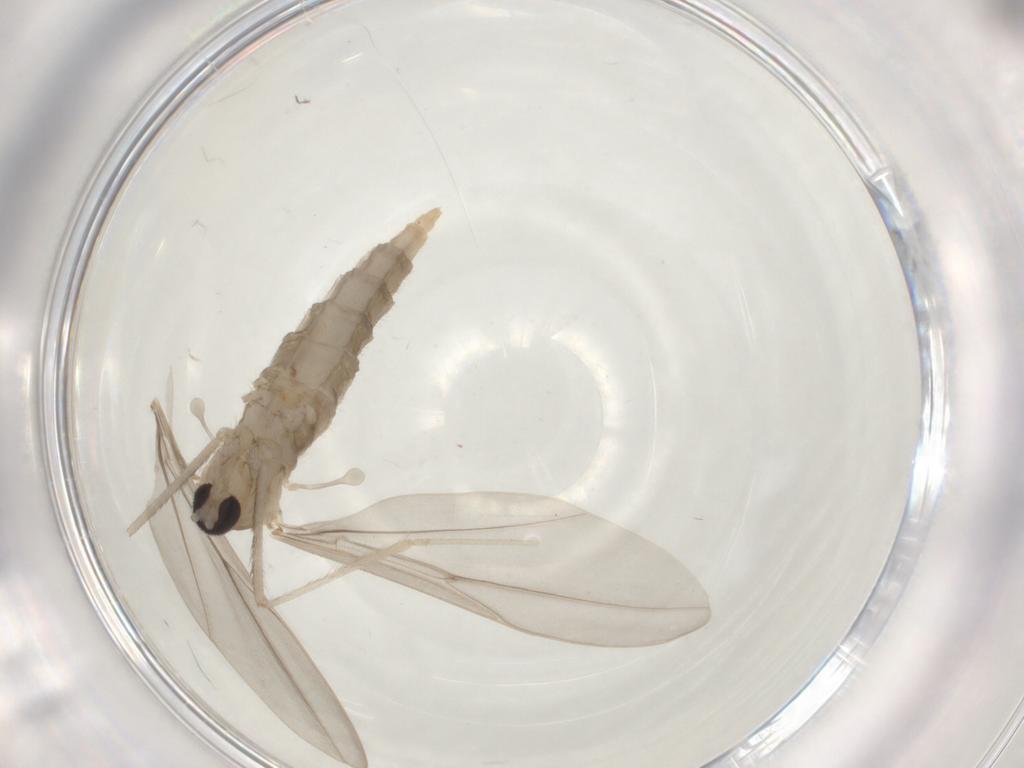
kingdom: Animalia
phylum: Arthropoda
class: Insecta
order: Diptera
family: Cecidomyiidae
